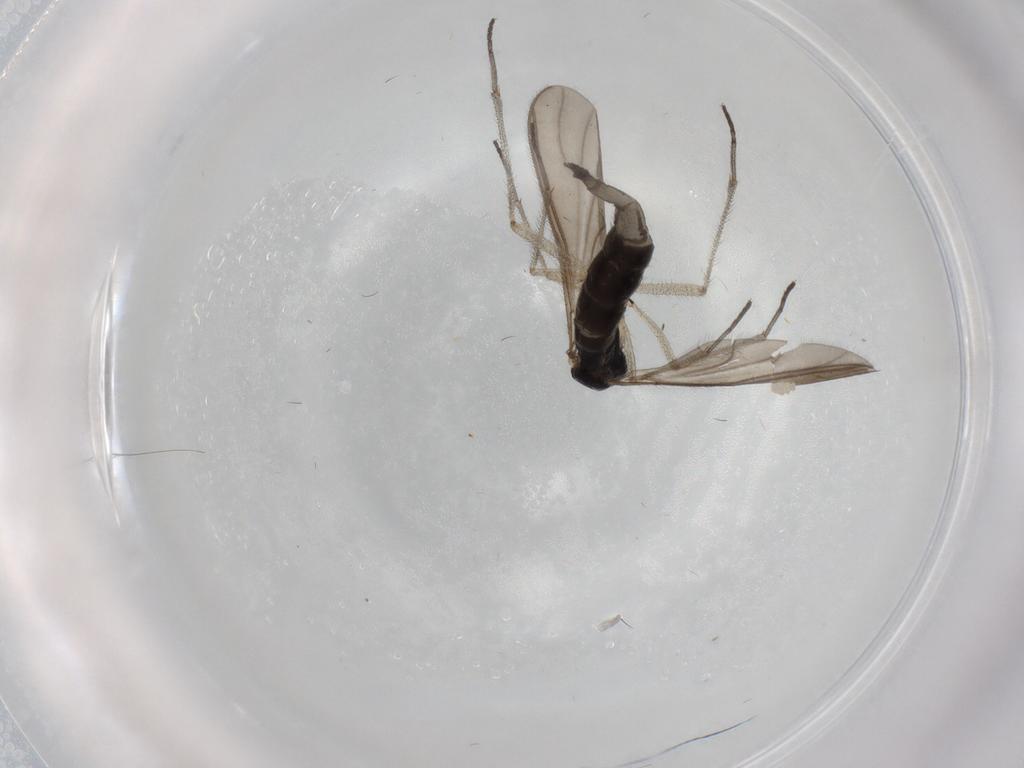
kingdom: Animalia
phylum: Arthropoda
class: Insecta
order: Diptera
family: Sciaridae
